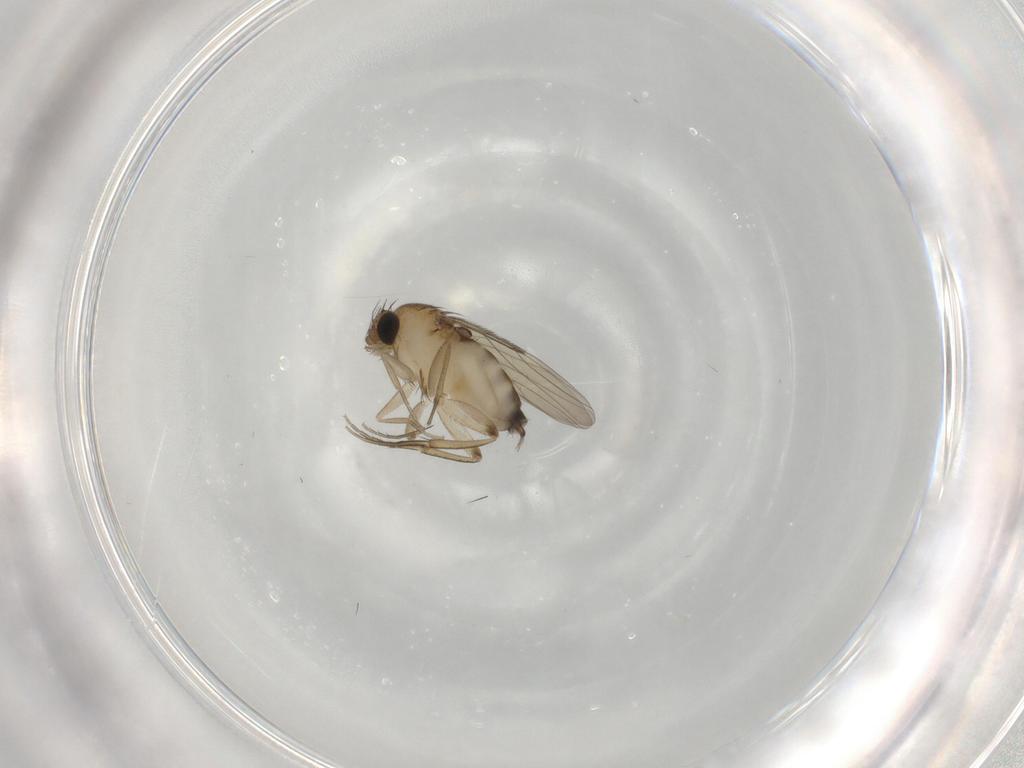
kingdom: Animalia
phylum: Arthropoda
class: Insecta
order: Diptera
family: Phoridae
